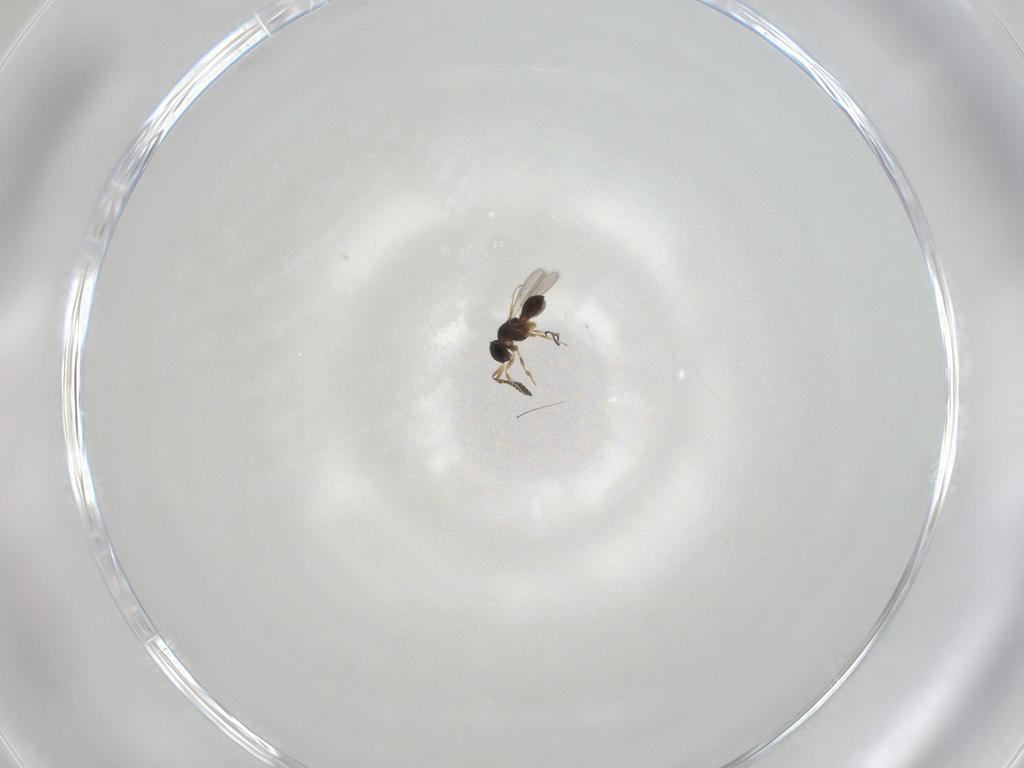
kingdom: Animalia
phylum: Arthropoda
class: Insecta
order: Hymenoptera
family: Scelionidae
